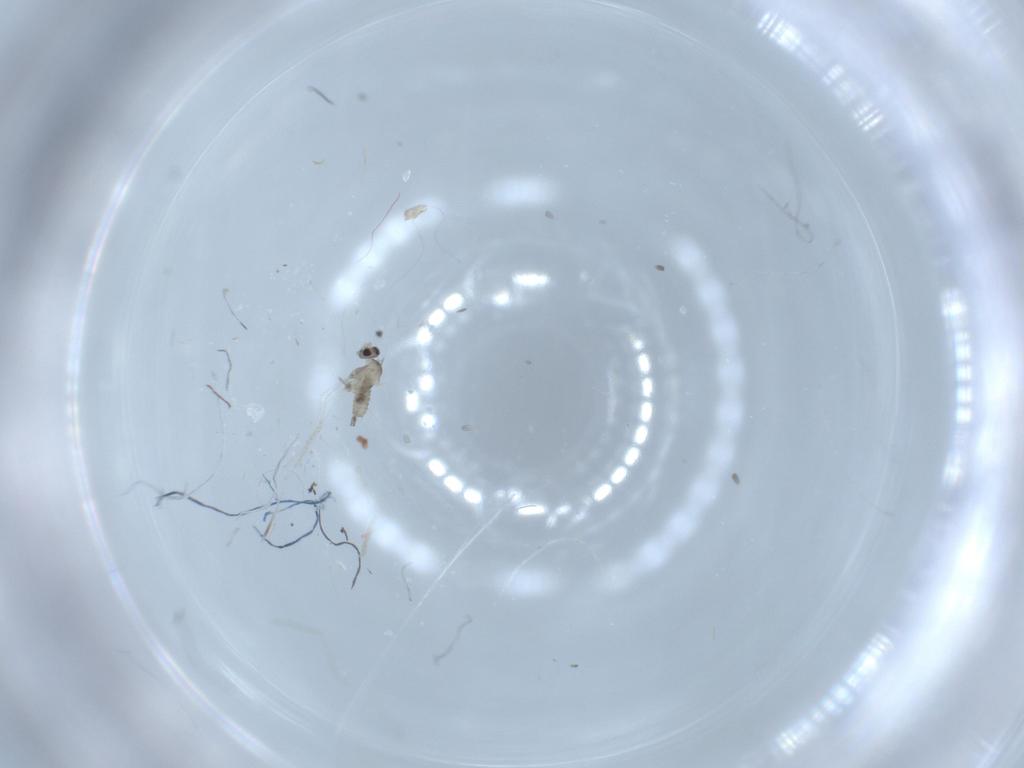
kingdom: Animalia
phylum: Arthropoda
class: Insecta
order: Diptera
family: Cecidomyiidae
